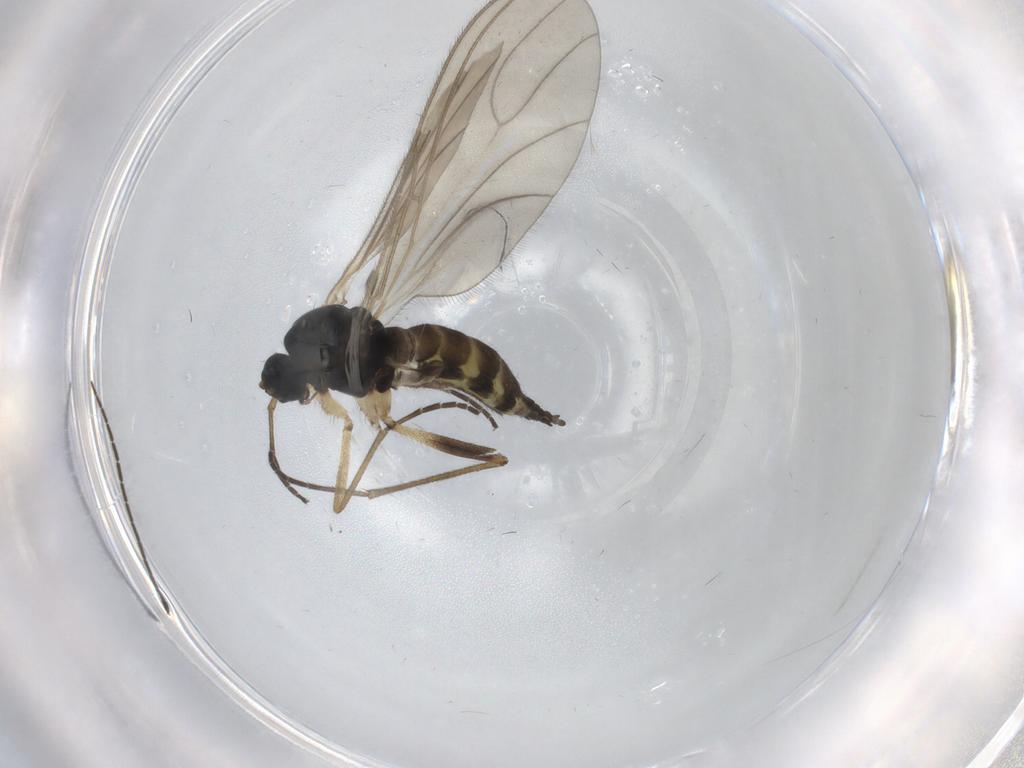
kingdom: Animalia
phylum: Arthropoda
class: Insecta
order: Diptera
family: Sciaridae
